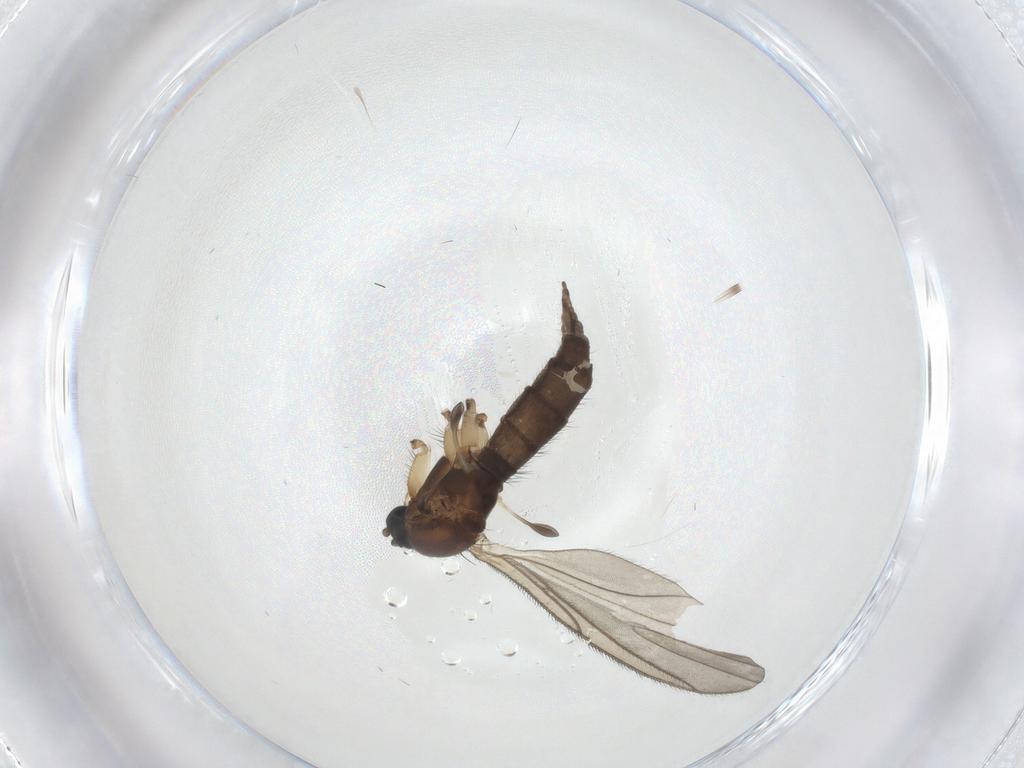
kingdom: Animalia
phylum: Arthropoda
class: Insecta
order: Diptera
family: Sciaridae
